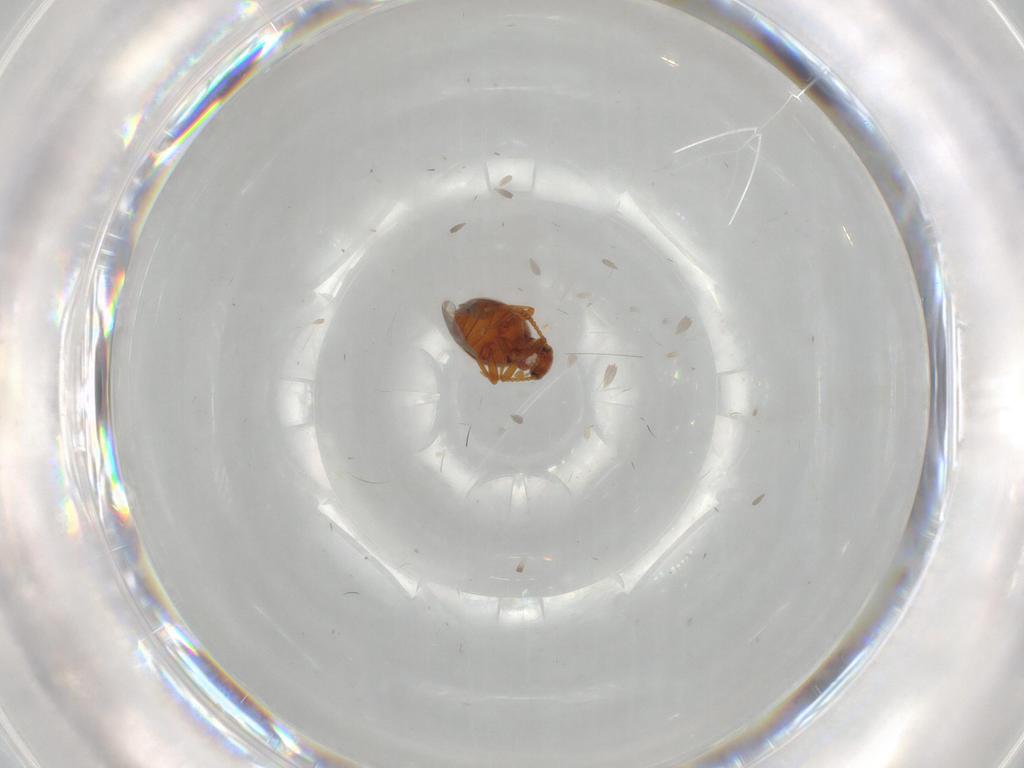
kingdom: Animalia
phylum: Arthropoda
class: Insecta
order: Coleoptera
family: Aderidae
